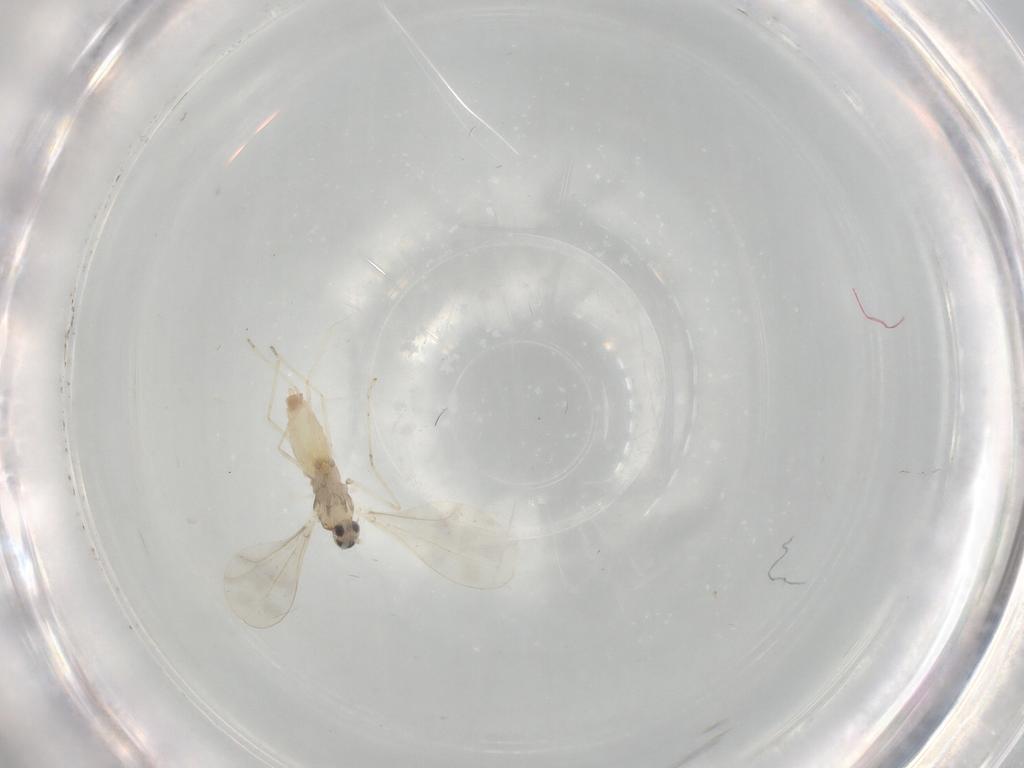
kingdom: Animalia
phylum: Arthropoda
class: Insecta
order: Diptera
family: Cecidomyiidae
